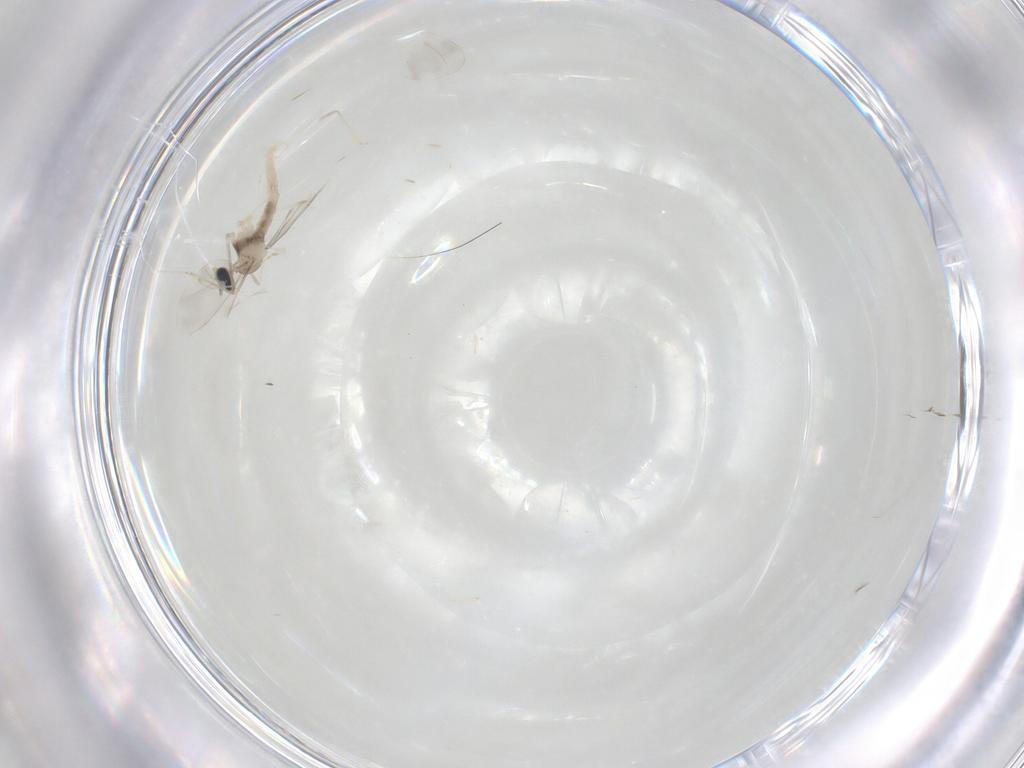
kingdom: Animalia
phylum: Arthropoda
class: Insecta
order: Diptera
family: Cecidomyiidae
